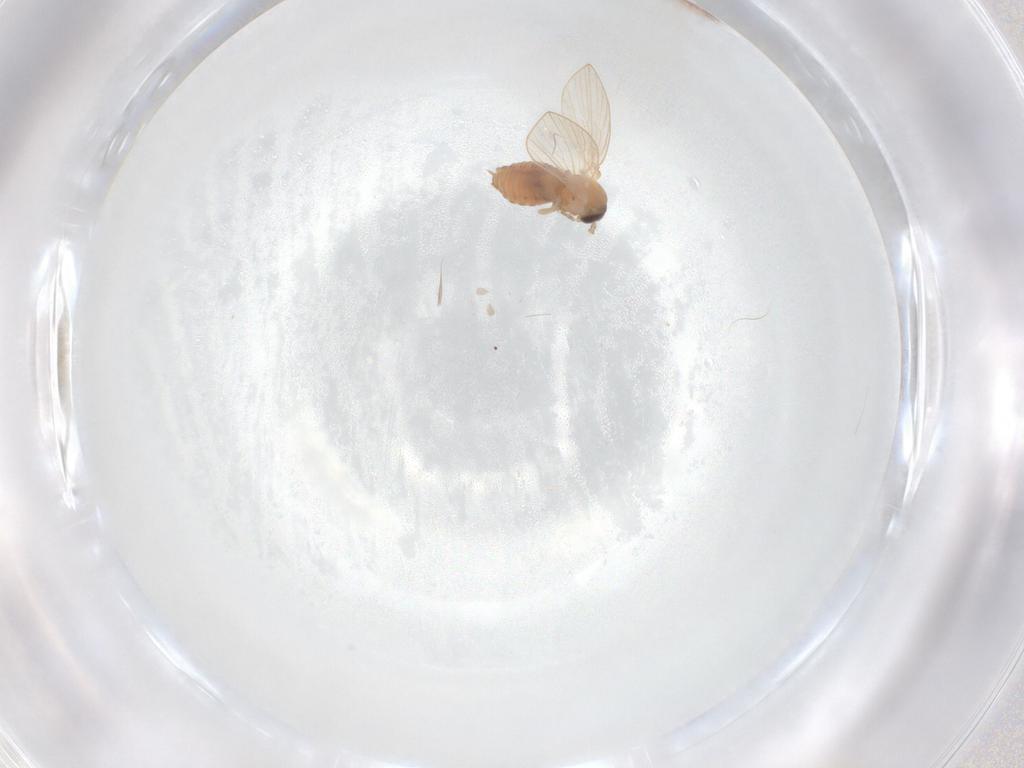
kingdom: Animalia
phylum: Arthropoda
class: Insecta
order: Diptera
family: Psychodidae
